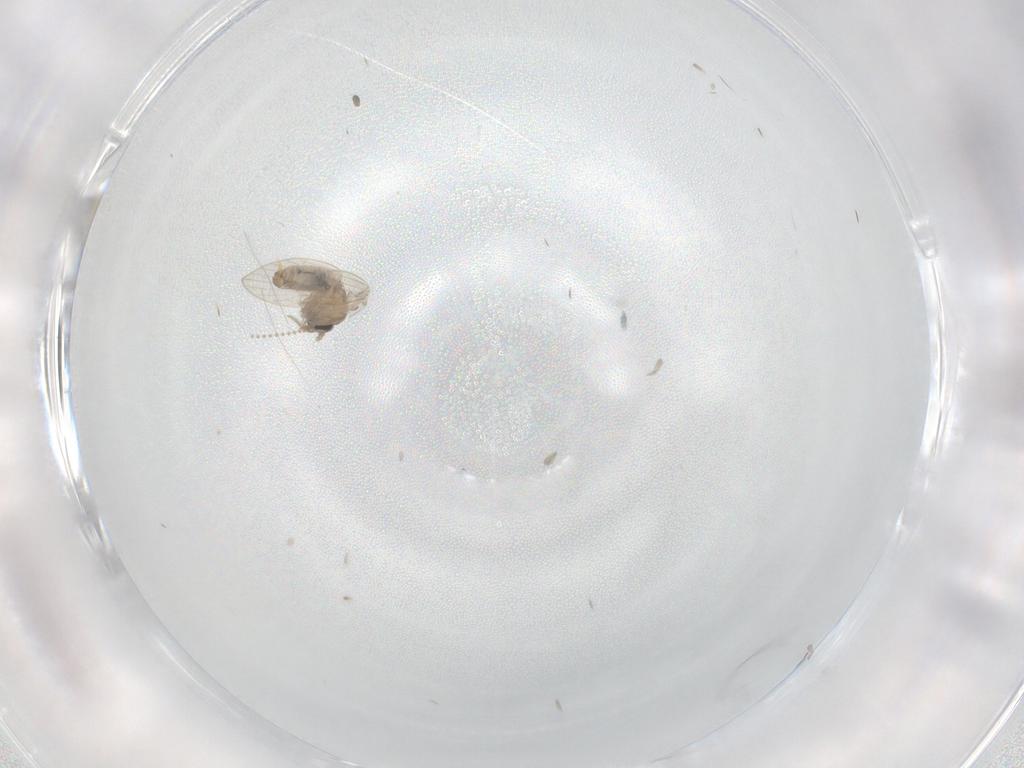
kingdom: Animalia
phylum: Arthropoda
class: Insecta
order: Diptera
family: Psychodidae
